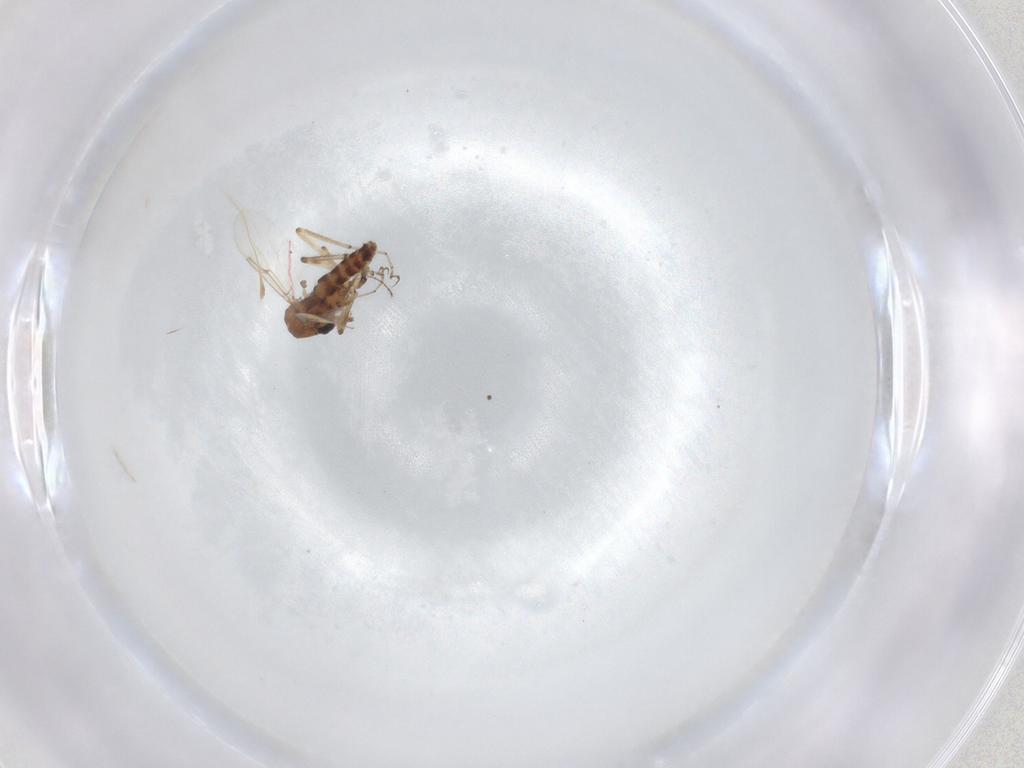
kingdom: Animalia
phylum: Arthropoda
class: Insecta
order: Diptera
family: Ceratopogonidae
